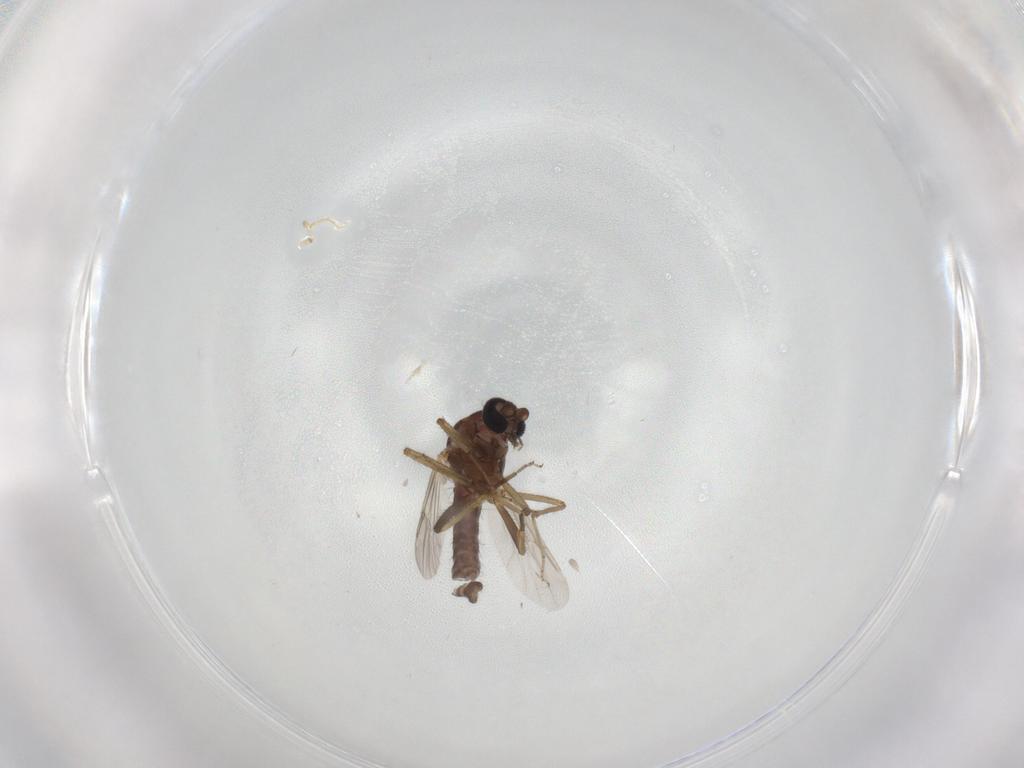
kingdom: Animalia
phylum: Arthropoda
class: Insecta
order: Diptera
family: Ceratopogonidae
